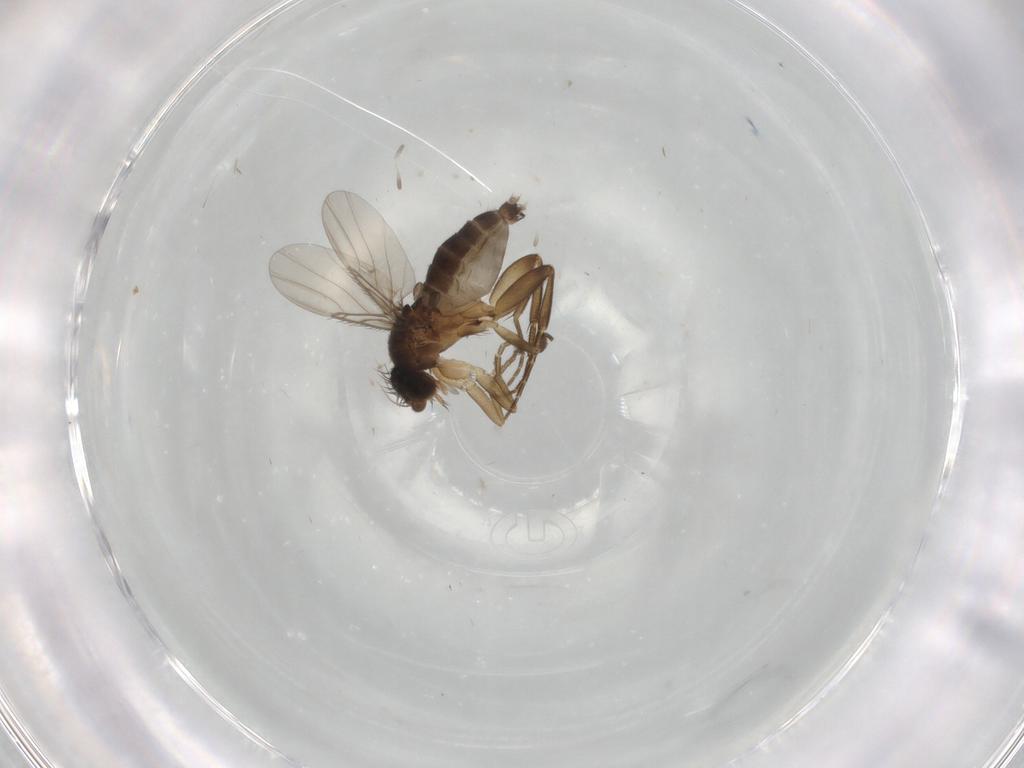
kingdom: Animalia
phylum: Arthropoda
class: Insecta
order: Diptera
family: Phoridae
